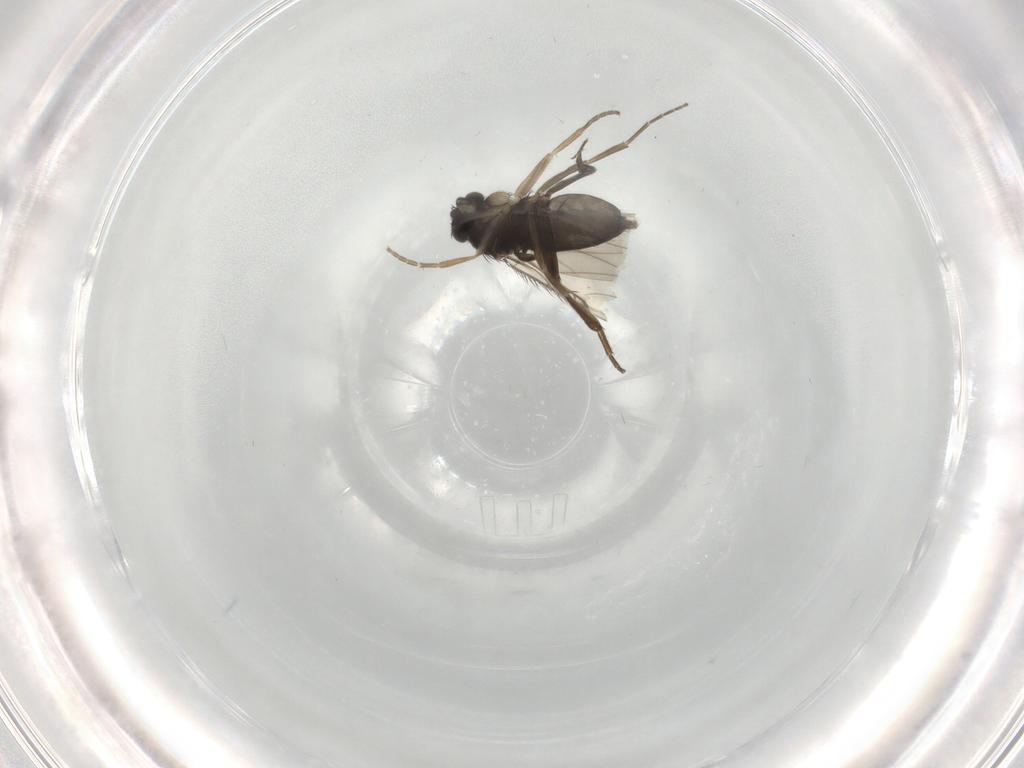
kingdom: Animalia
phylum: Arthropoda
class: Insecta
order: Diptera
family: Phoridae
